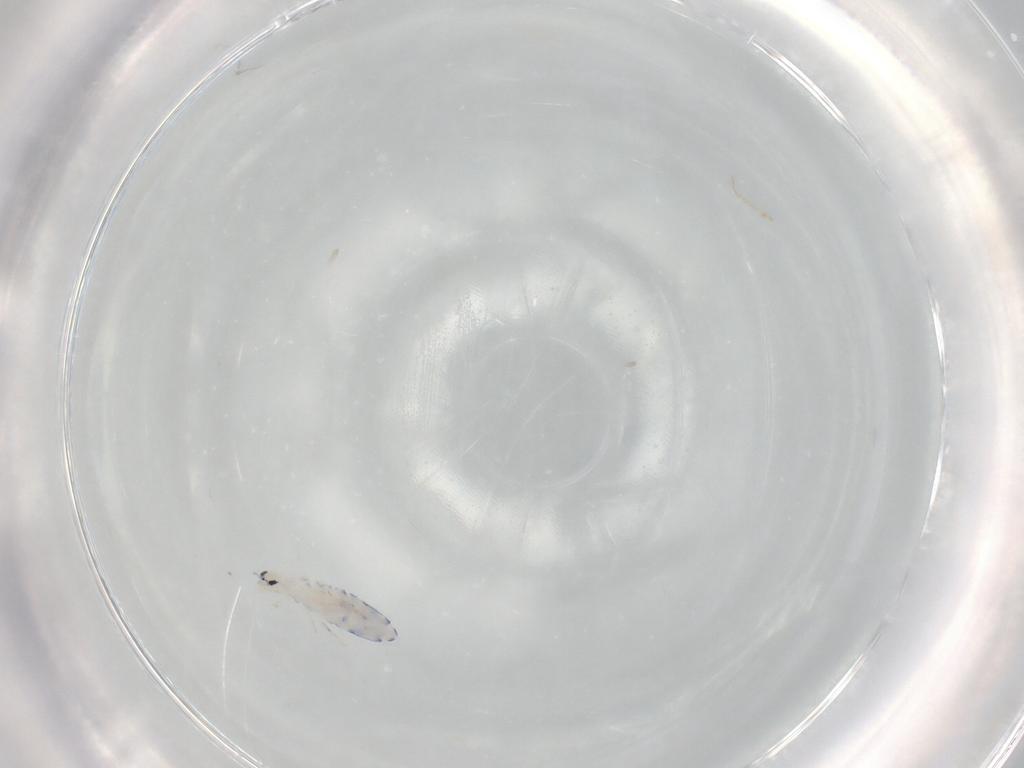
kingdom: Animalia
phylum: Arthropoda
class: Collembola
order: Entomobryomorpha
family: Entomobryidae
